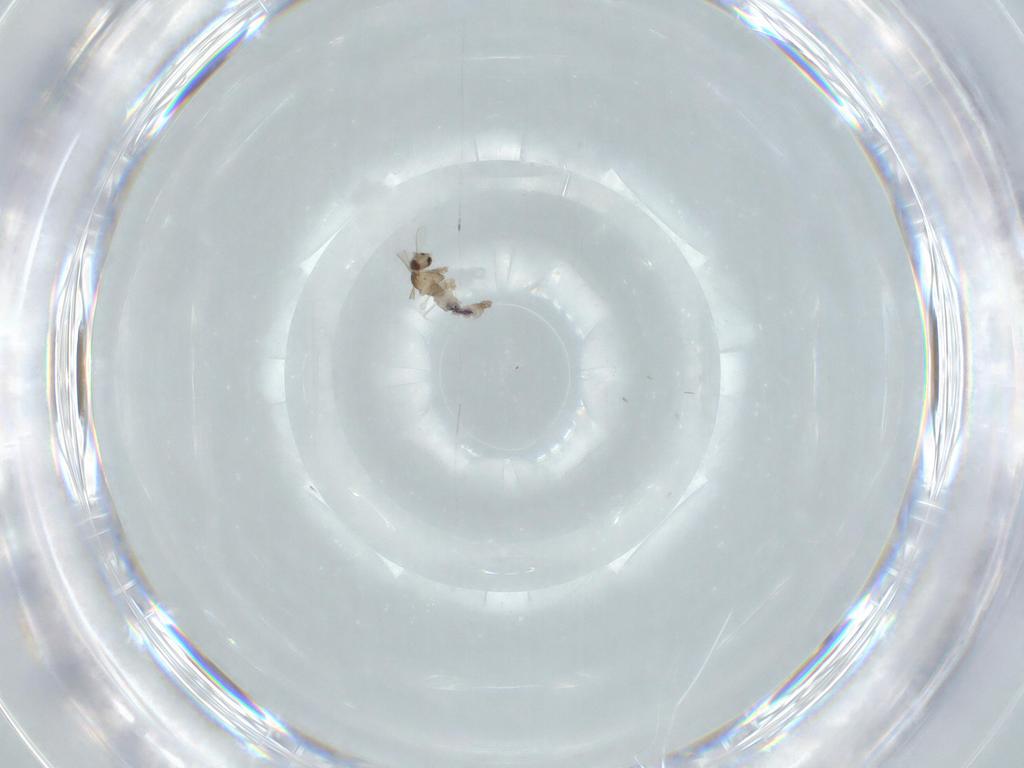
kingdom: Animalia
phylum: Arthropoda
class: Insecta
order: Diptera
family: Cecidomyiidae
